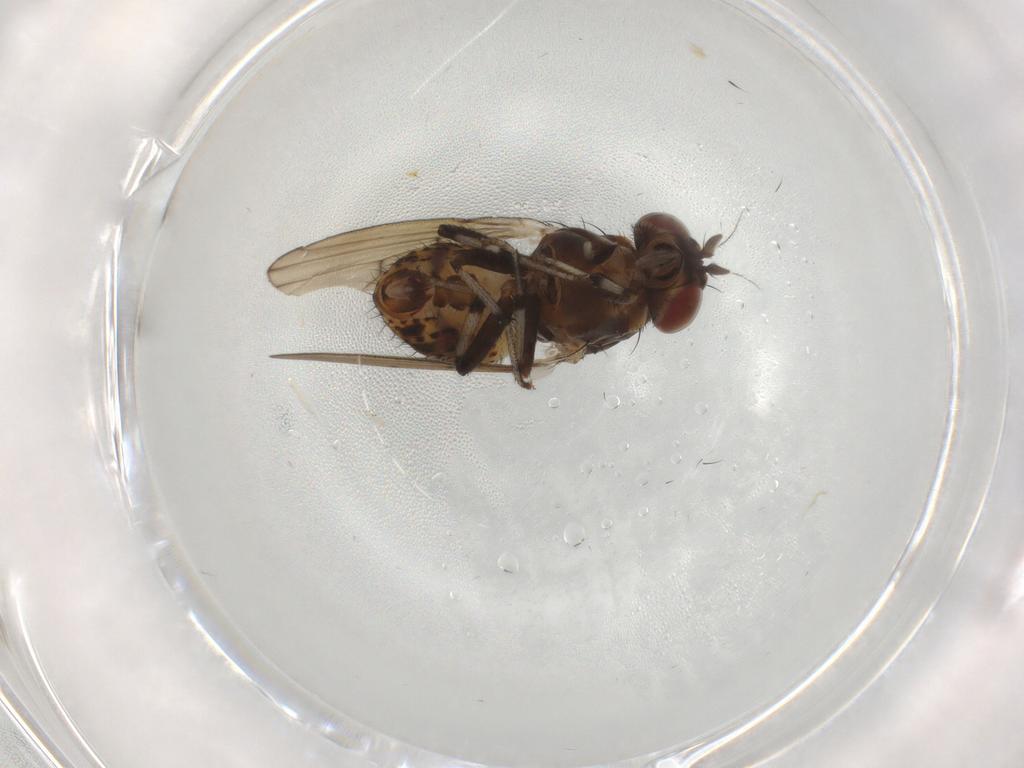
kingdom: Animalia
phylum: Arthropoda
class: Insecta
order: Diptera
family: Lauxaniidae
